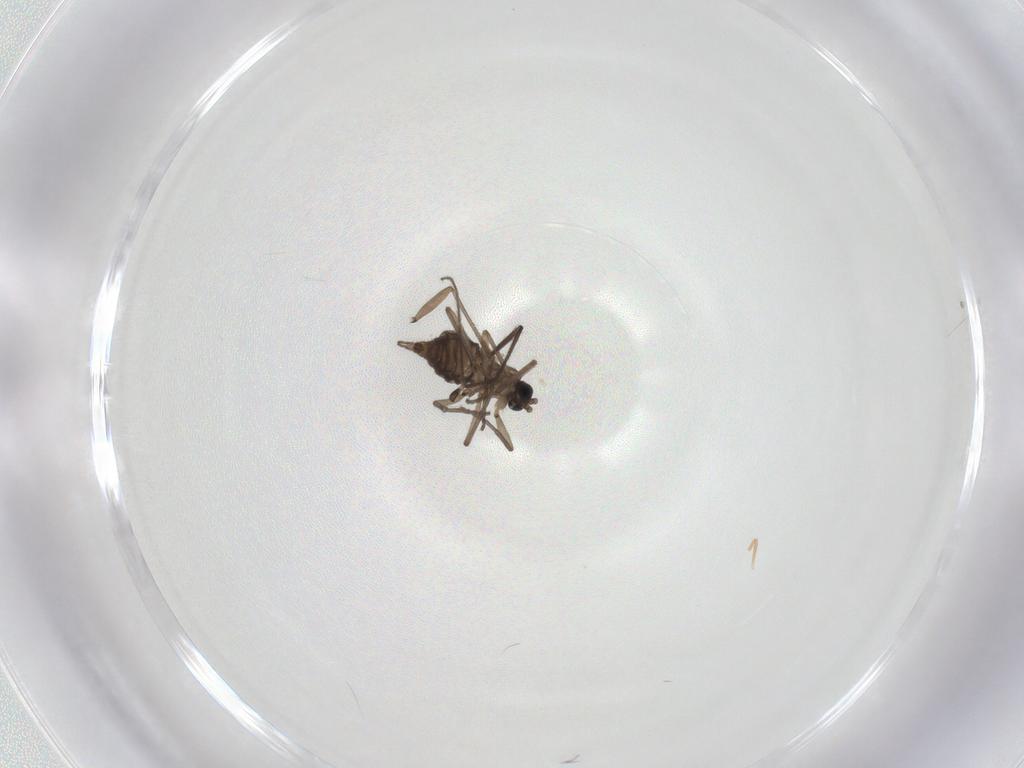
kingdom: Animalia
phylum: Arthropoda
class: Insecta
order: Diptera
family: Sciaridae
